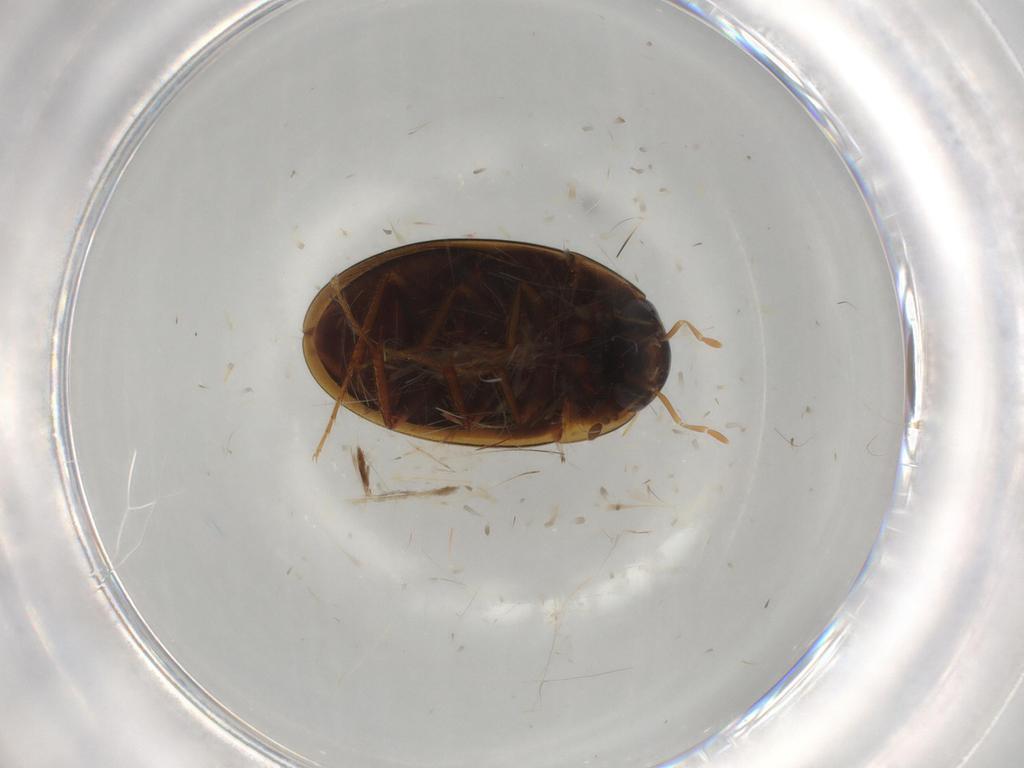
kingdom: Animalia
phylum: Arthropoda
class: Insecta
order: Coleoptera
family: Hydrophilidae
